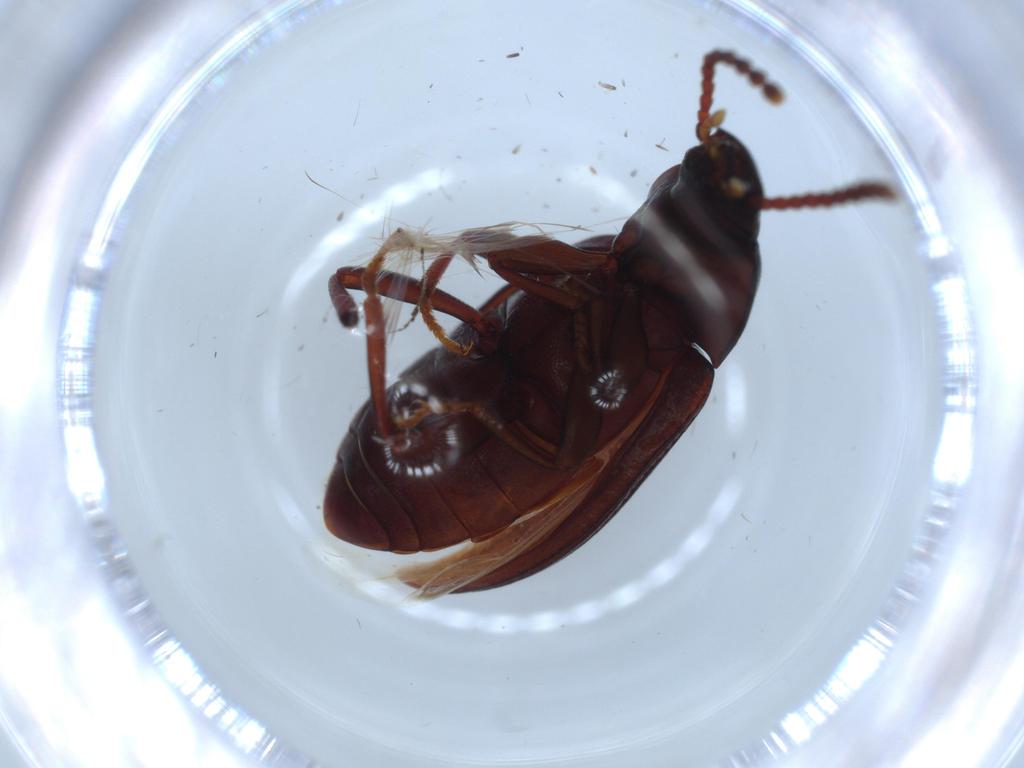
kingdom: Animalia
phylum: Arthropoda
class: Insecta
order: Coleoptera
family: Tenebrionidae
